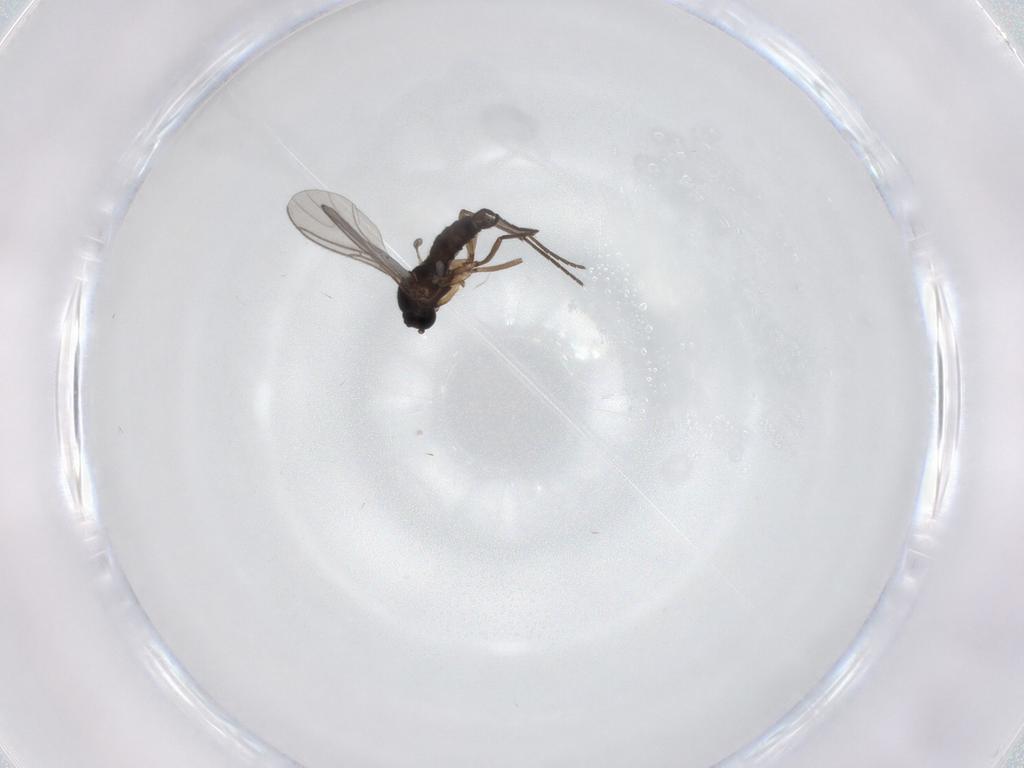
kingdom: Animalia
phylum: Arthropoda
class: Insecta
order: Diptera
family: Sciaridae
